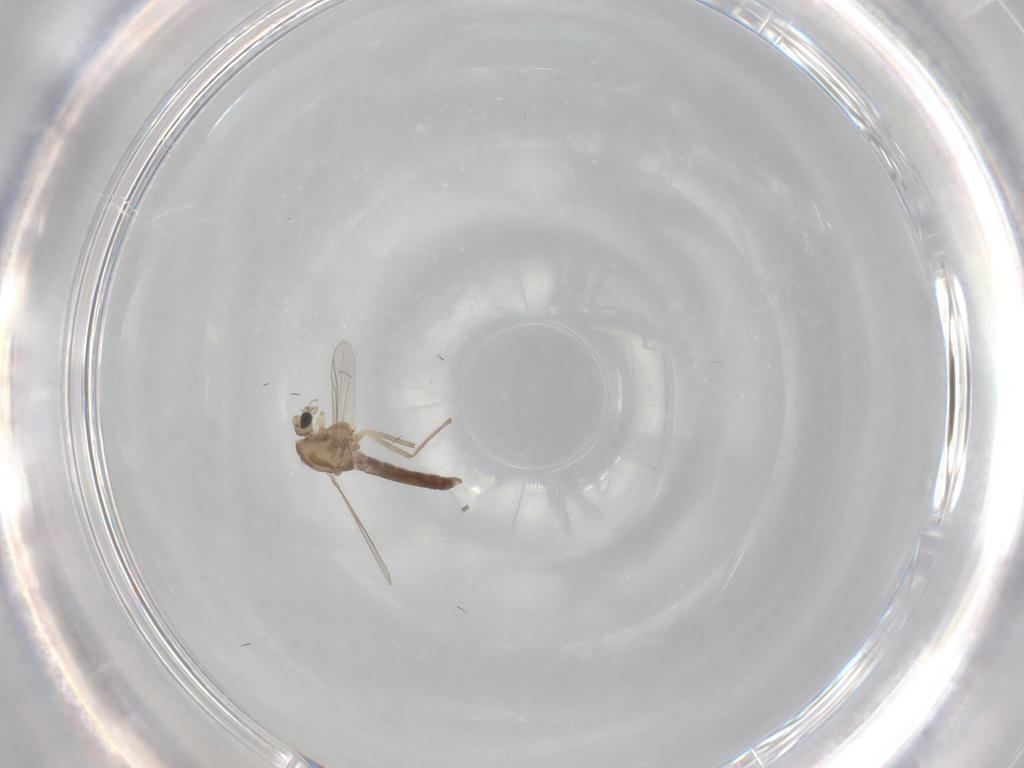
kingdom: Animalia
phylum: Arthropoda
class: Insecta
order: Diptera
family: Chironomidae
